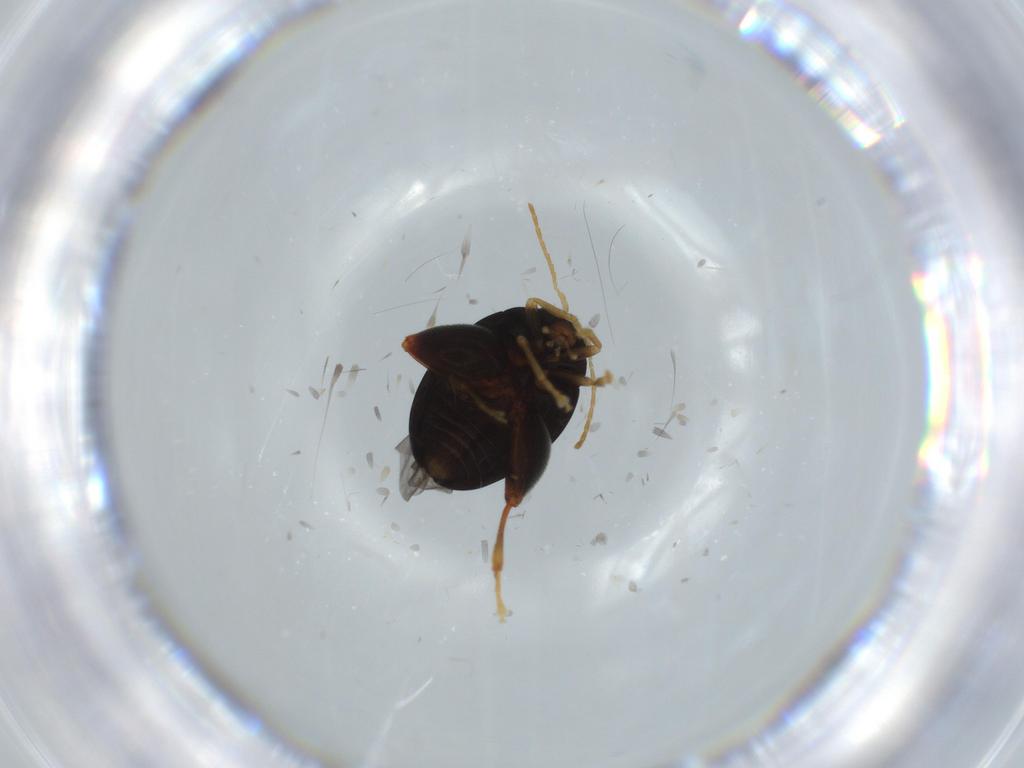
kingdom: Animalia
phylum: Arthropoda
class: Insecta
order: Coleoptera
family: Chrysomelidae
